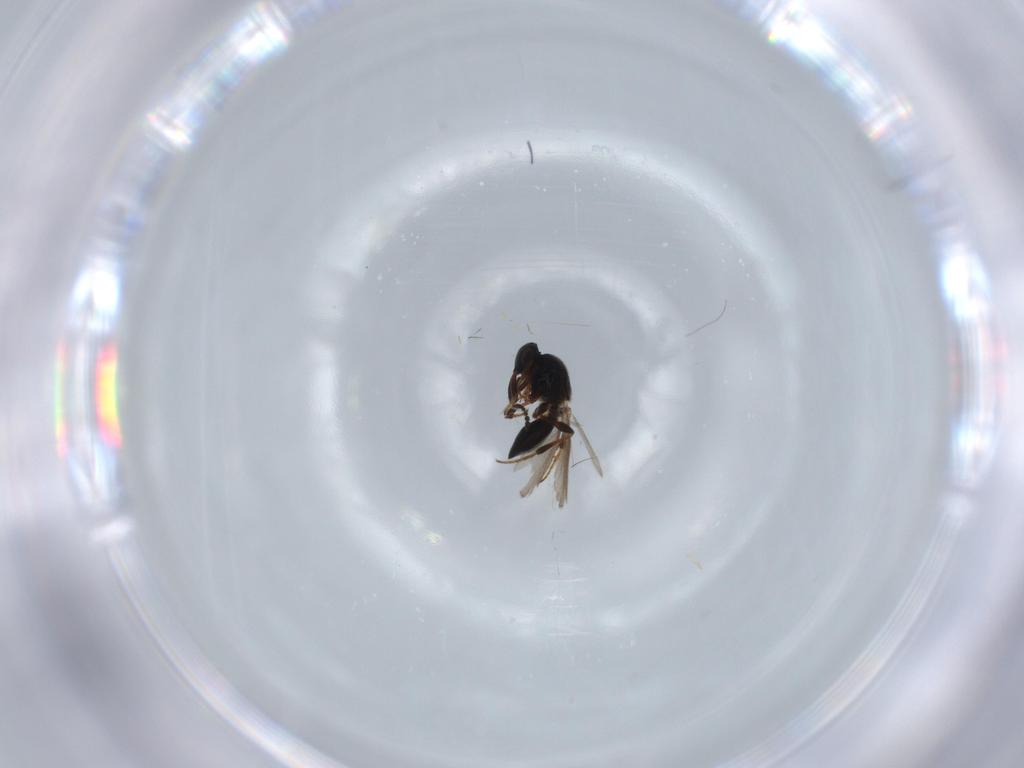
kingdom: Animalia
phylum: Arthropoda
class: Insecta
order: Hymenoptera
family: Platygastridae
